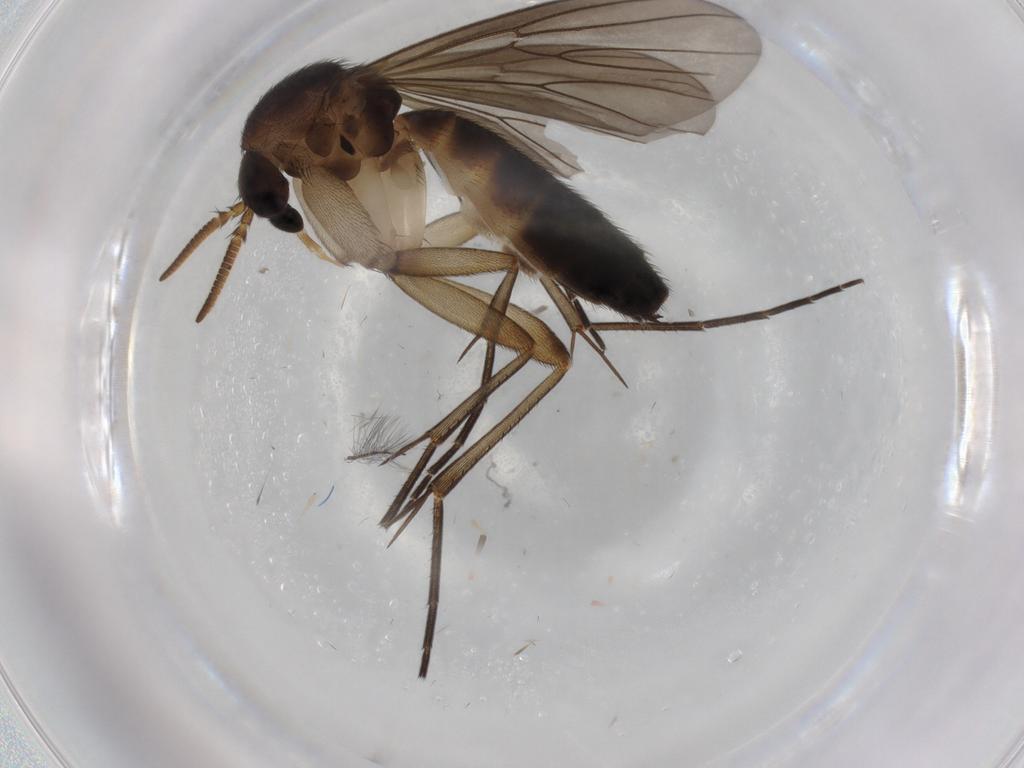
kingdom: Animalia
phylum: Arthropoda
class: Insecta
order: Diptera
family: Mycetophilidae
